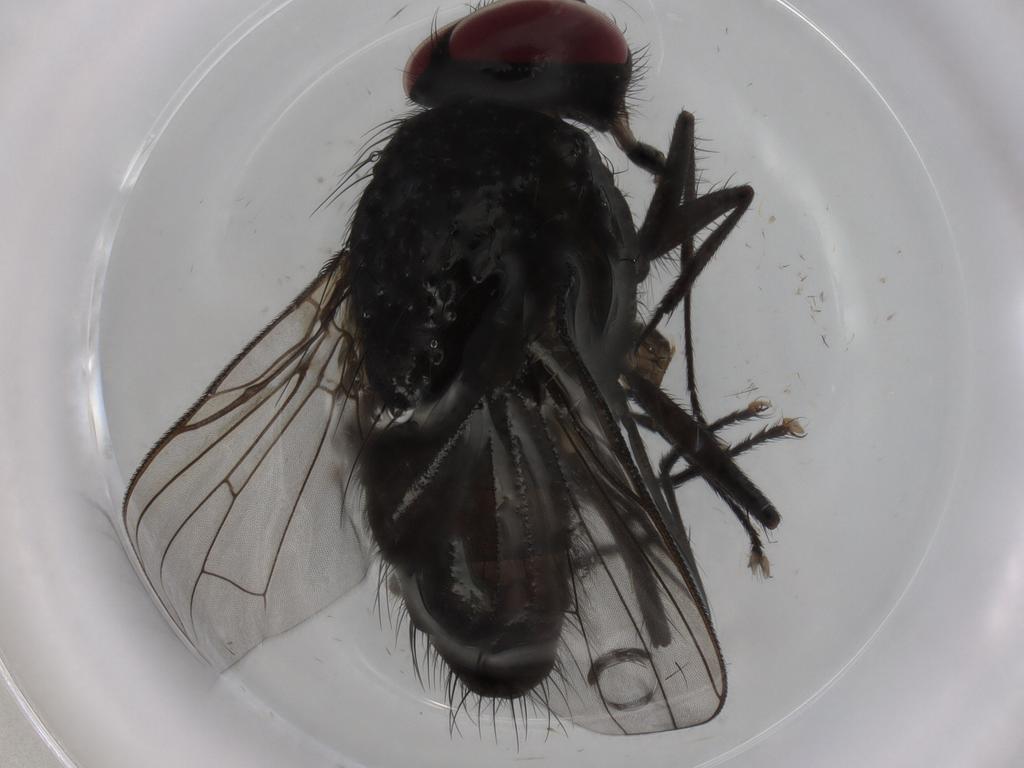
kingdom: Animalia
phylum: Arthropoda
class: Insecta
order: Diptera
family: Muscidae
